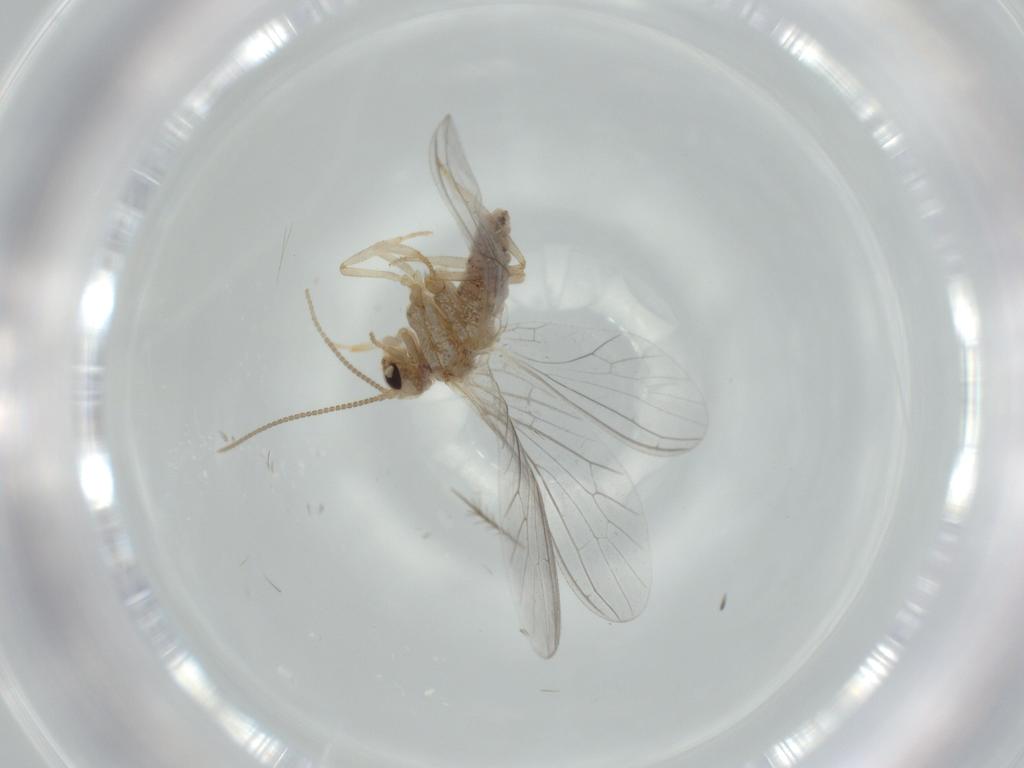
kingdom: Animalia
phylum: Arthropoda
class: Insecta
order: Neuroptera
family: Coniopterygidae
